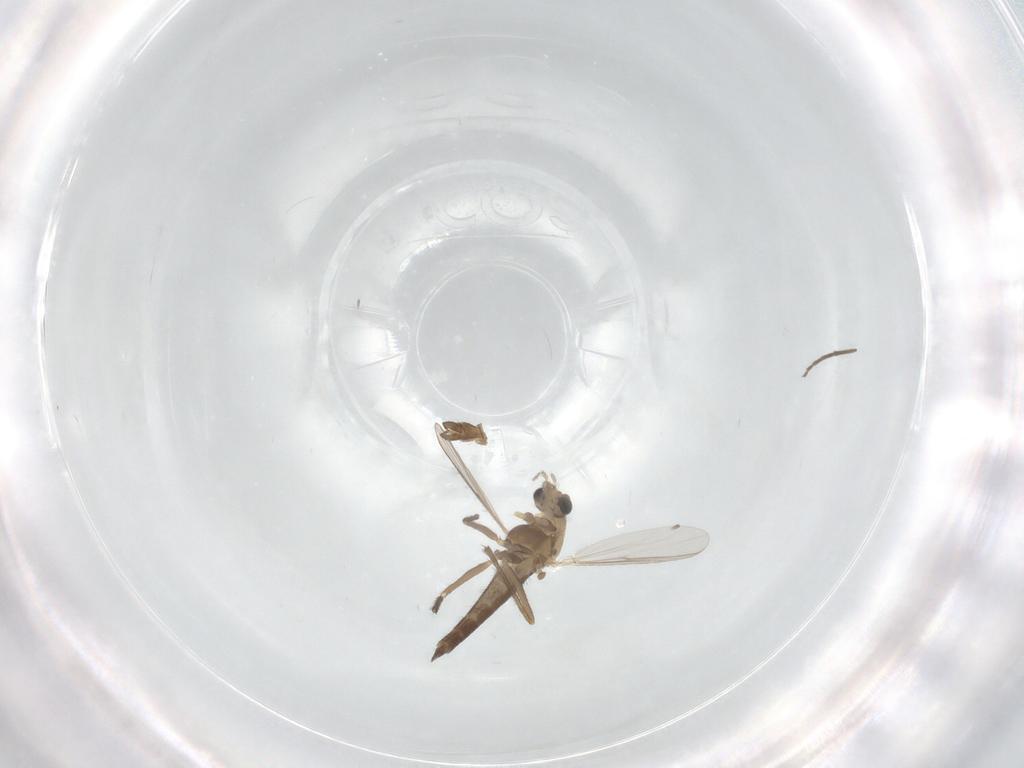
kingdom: Animalia
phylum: Arthropoda
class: Insecta
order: Diptera
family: Chironomidae
